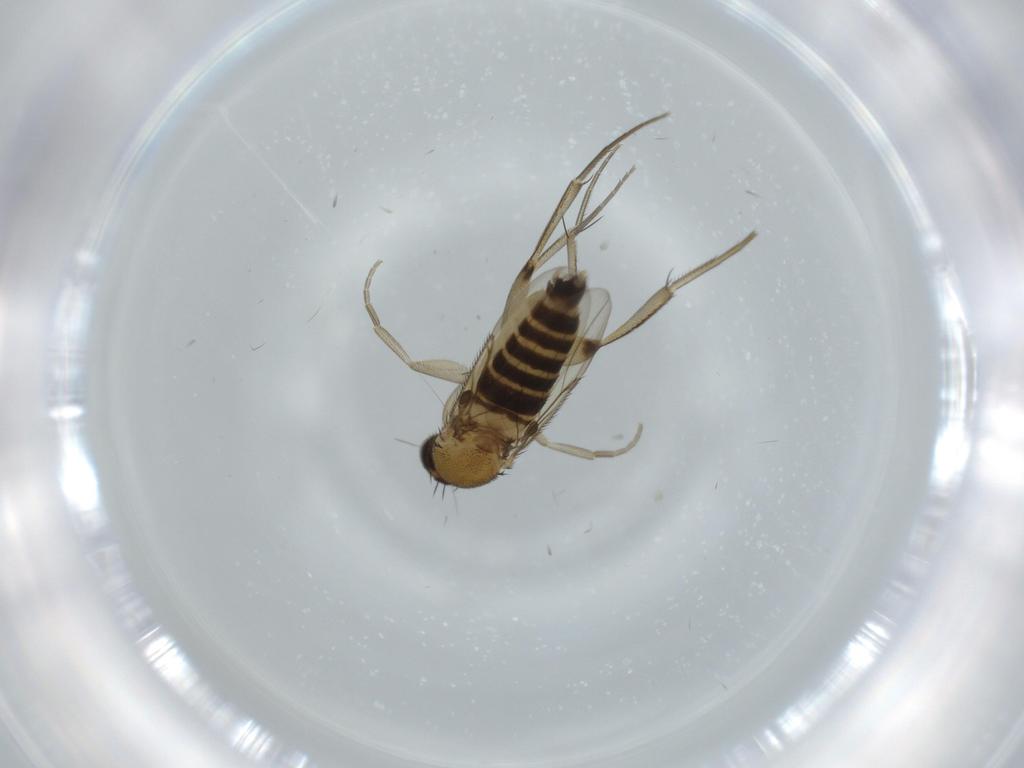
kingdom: Animalia
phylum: Arthropoda
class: Insecta
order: Diptera
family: Phoridae
